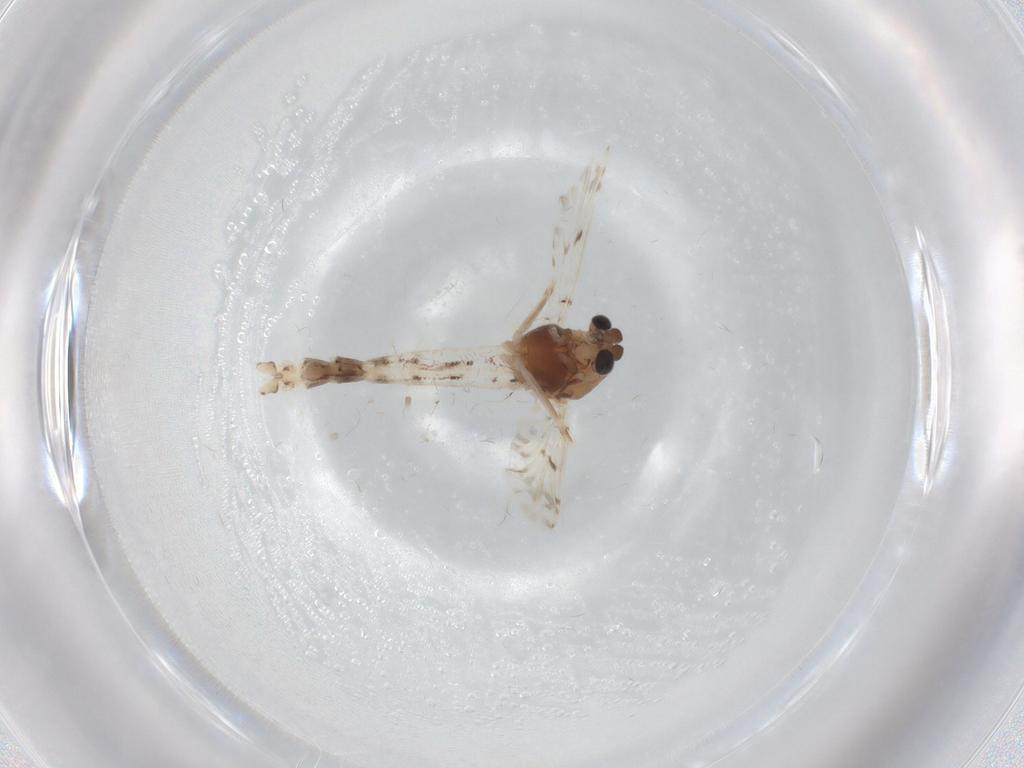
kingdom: Animalia
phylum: Arthropoda
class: Insecta
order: Diptera
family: Chironomidae
